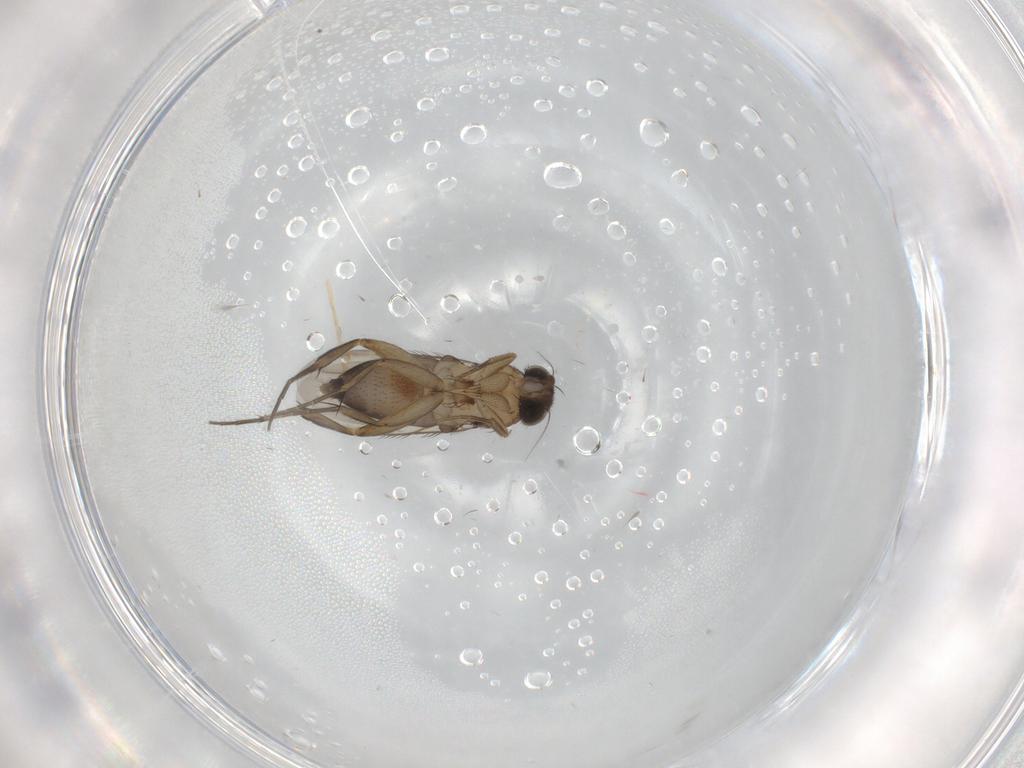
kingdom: Animalia
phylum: Arthropoda
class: Insecta
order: Diptera
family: Phoridae
